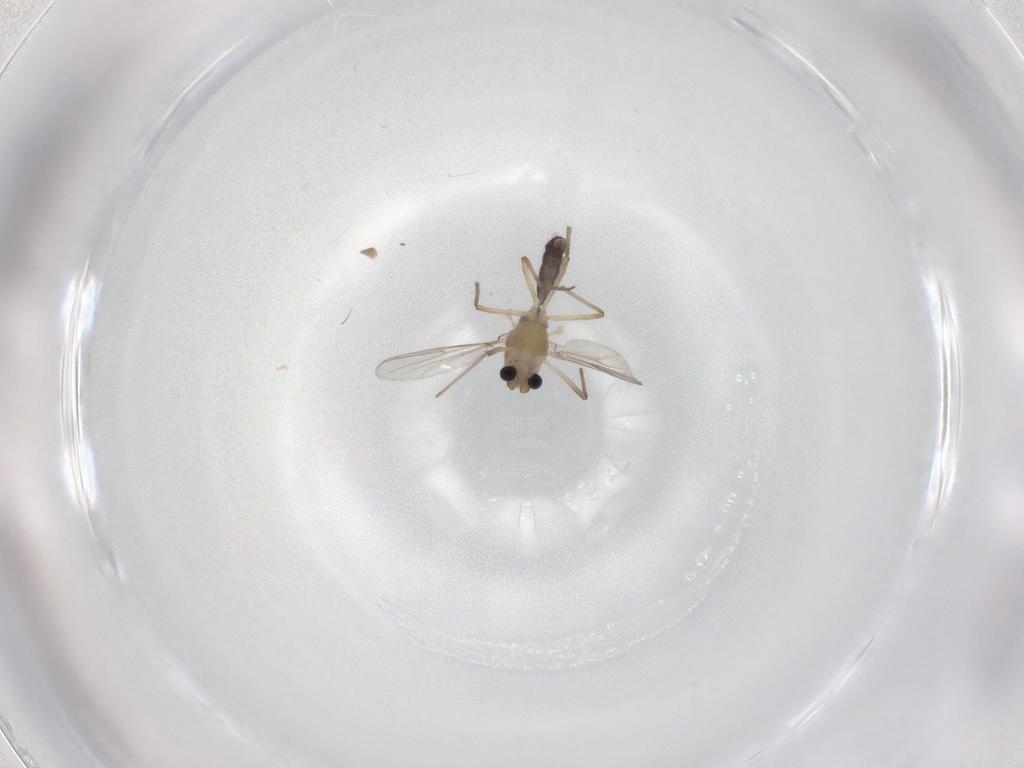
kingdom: Animalia
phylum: Arthropoda
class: Insecta
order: Diptera
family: Chironomidae
